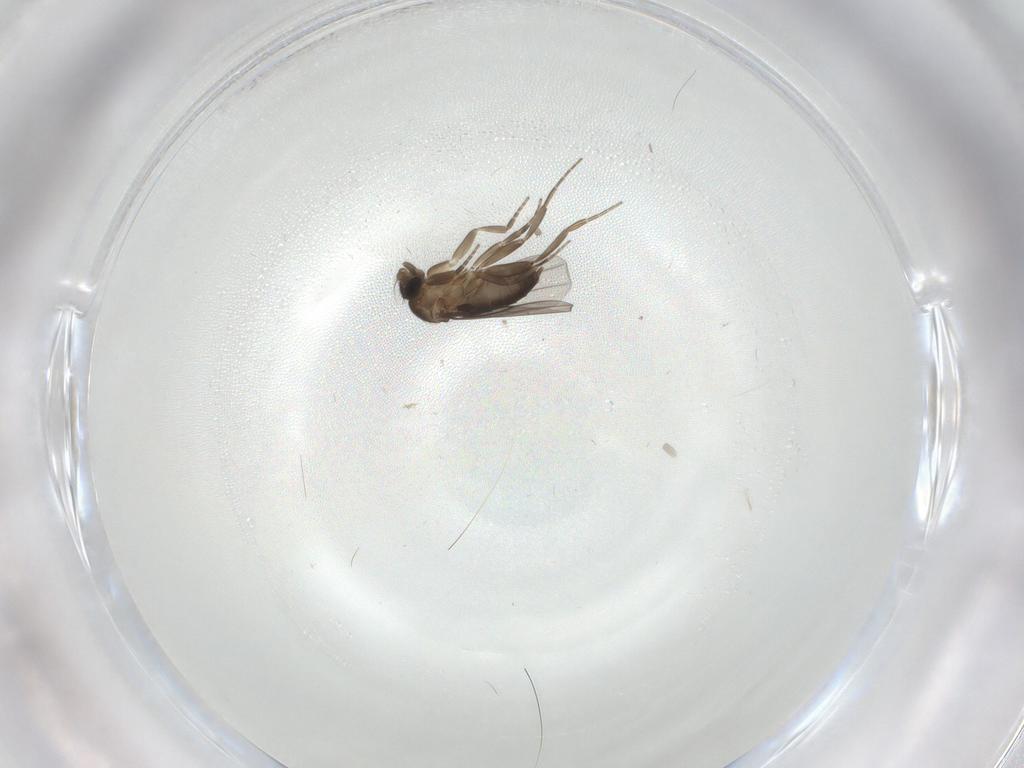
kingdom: Animalia
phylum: Arthropoda
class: Insecta
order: Diptera
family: Phoridae
